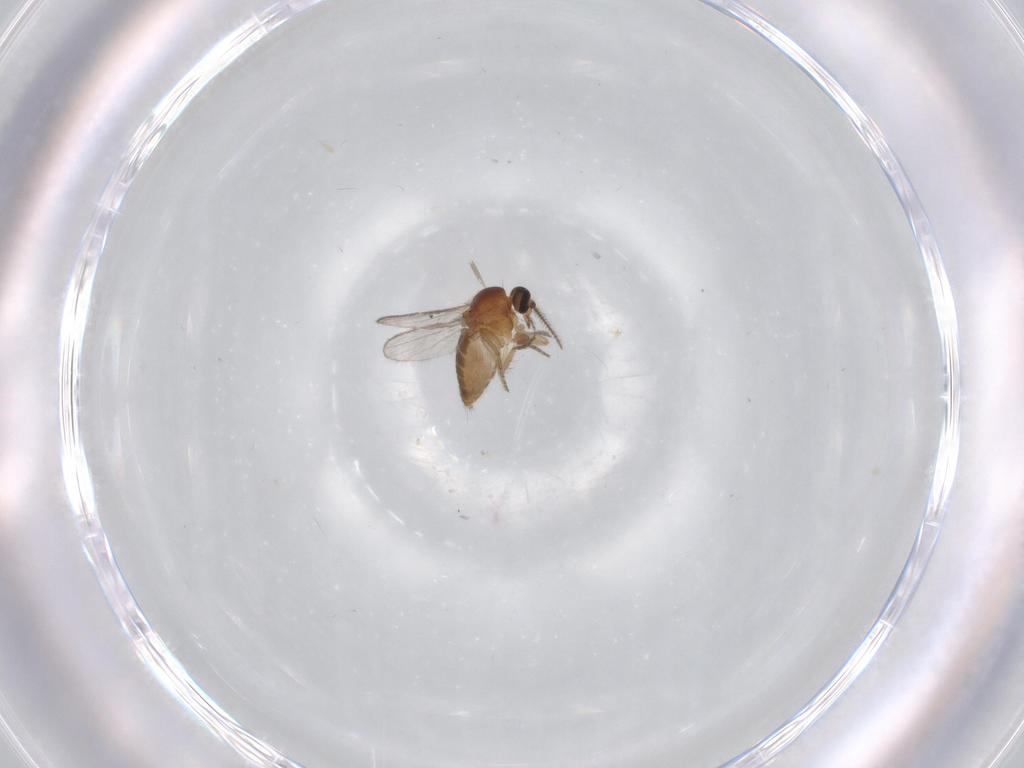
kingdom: Animalia
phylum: Arthropoda
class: Insecta
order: Diptera
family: Ceratopogonidae
